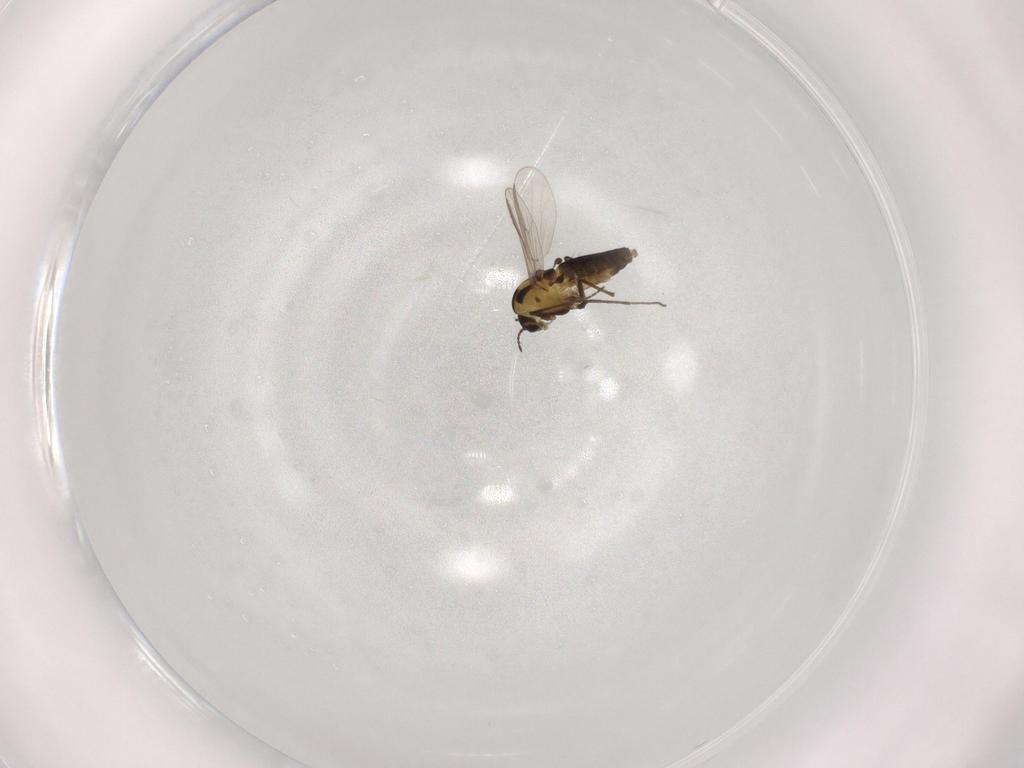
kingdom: Animalia
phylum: Arthropoda
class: Insecta
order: Diptera
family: Chironomidae
